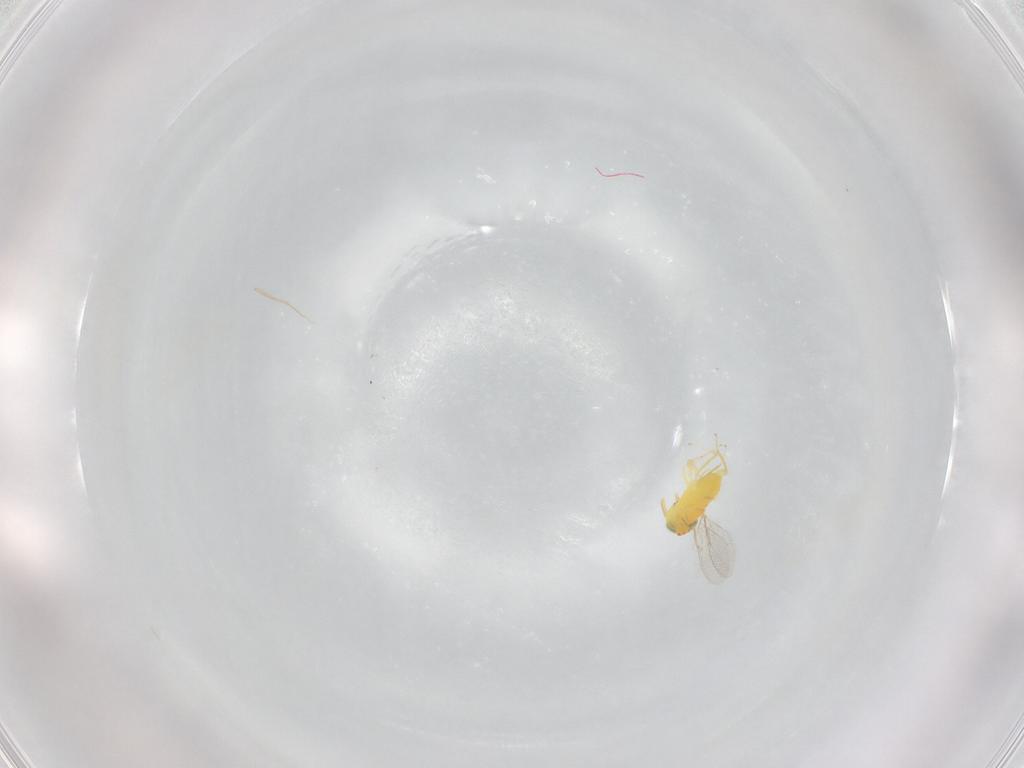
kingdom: Animalia
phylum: Arthropoda
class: Insecta
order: Hymenoptera
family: Aphelinidae
